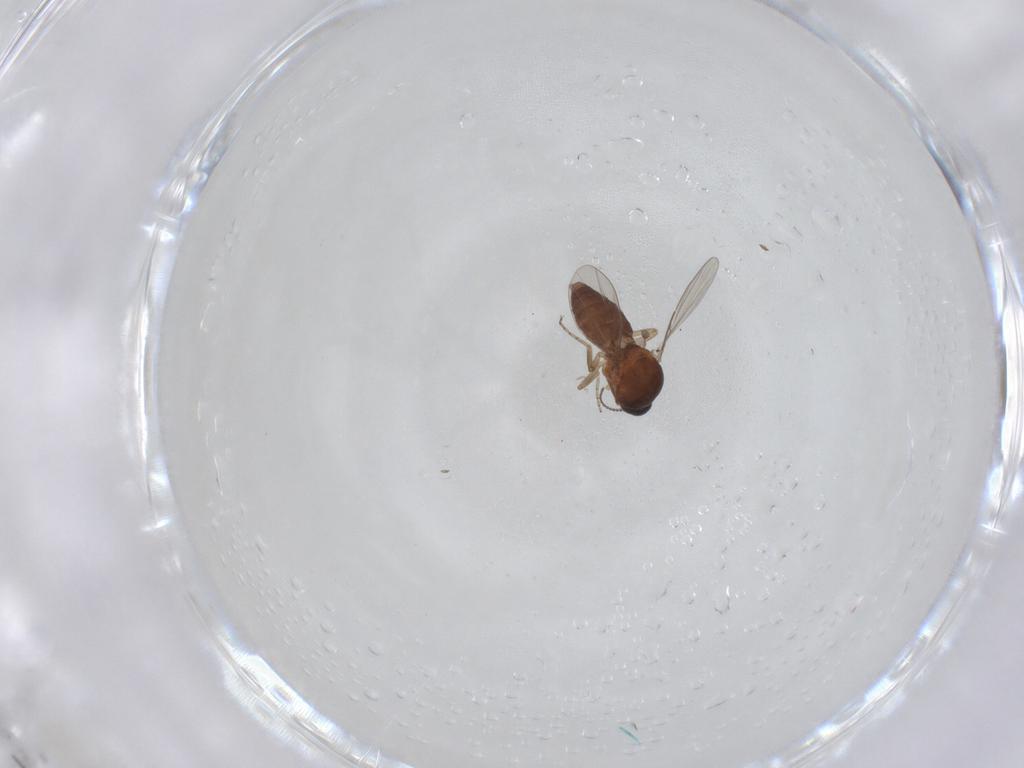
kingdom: Animalia
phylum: Arthropoda
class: Insecta
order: Diptera
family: Ceratopogonidae
